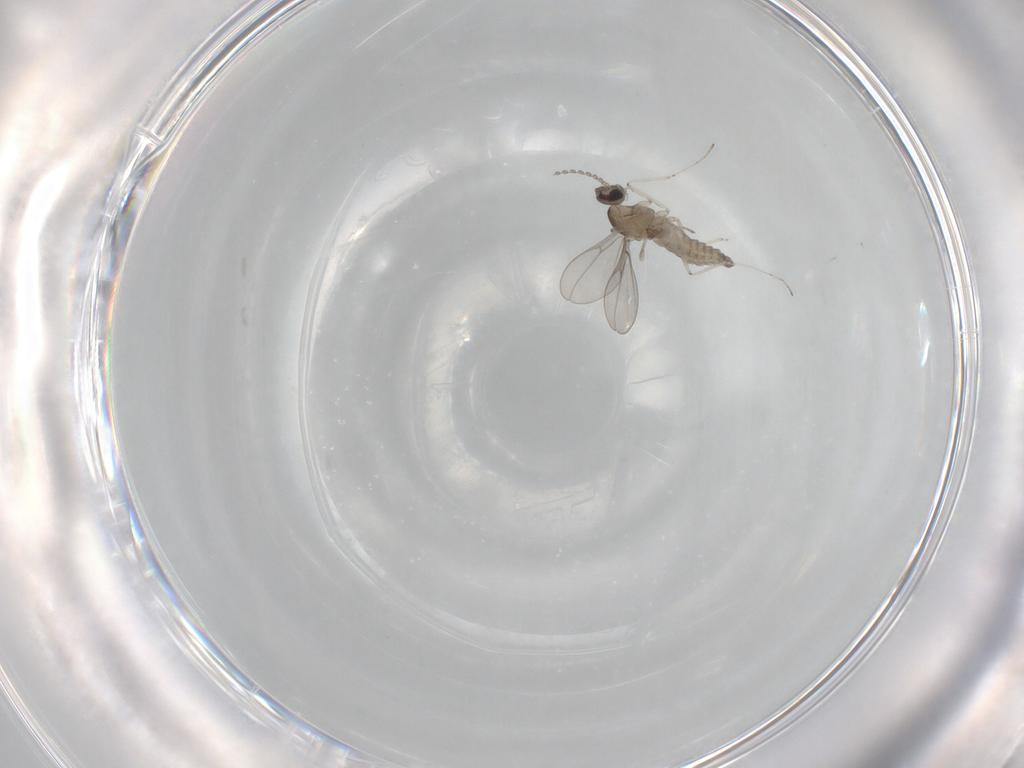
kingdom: Animalia
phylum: Arthropoda
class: Insecta
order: Diptera
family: Cecidomyiidae
